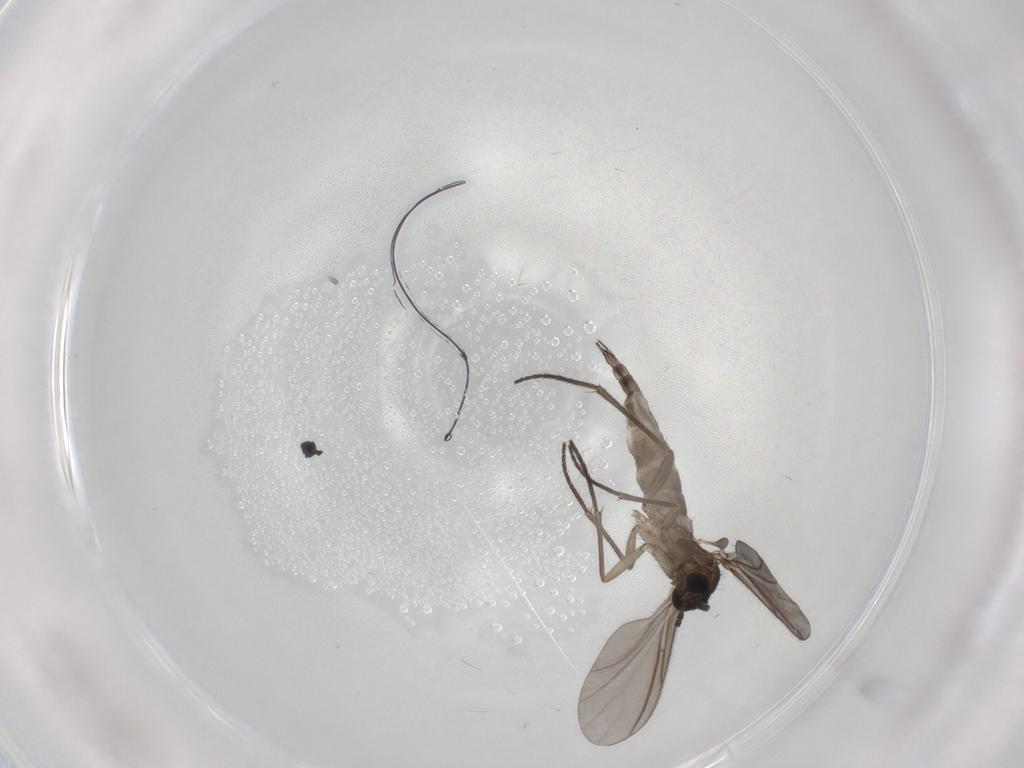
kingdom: Animalia
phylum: Arthropoda
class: Insecta
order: Diptera
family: Sciaridae
